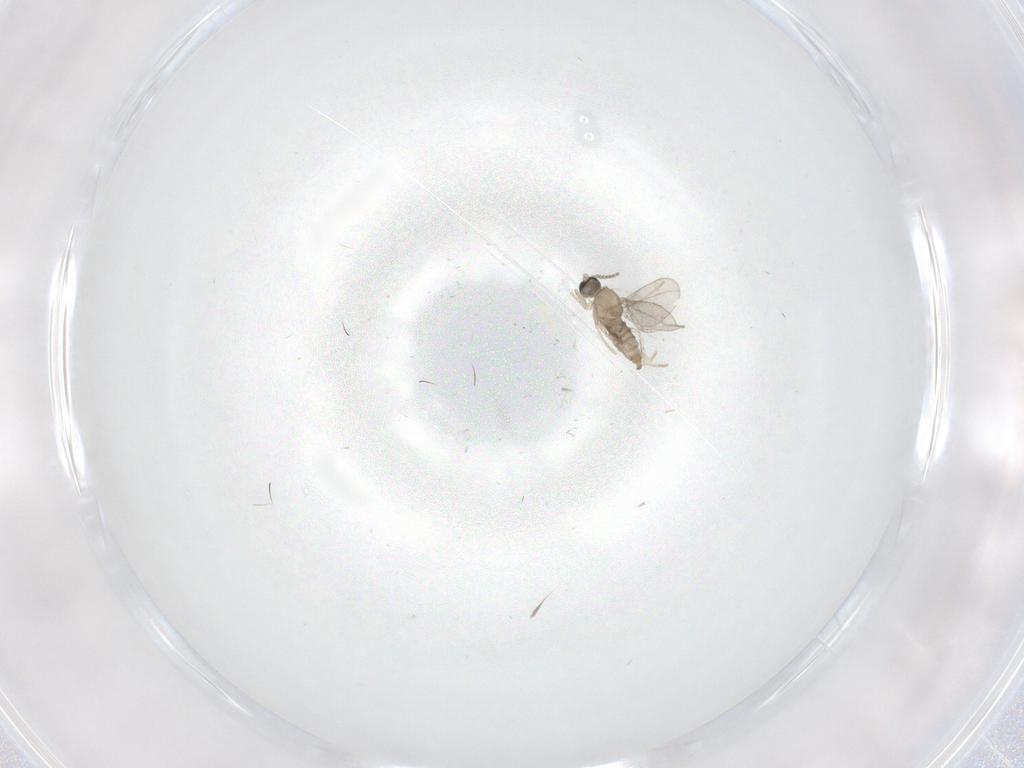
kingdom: Animalia
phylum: Arthropoda
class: Insecta
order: Diptera
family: Cecidomyiidae
